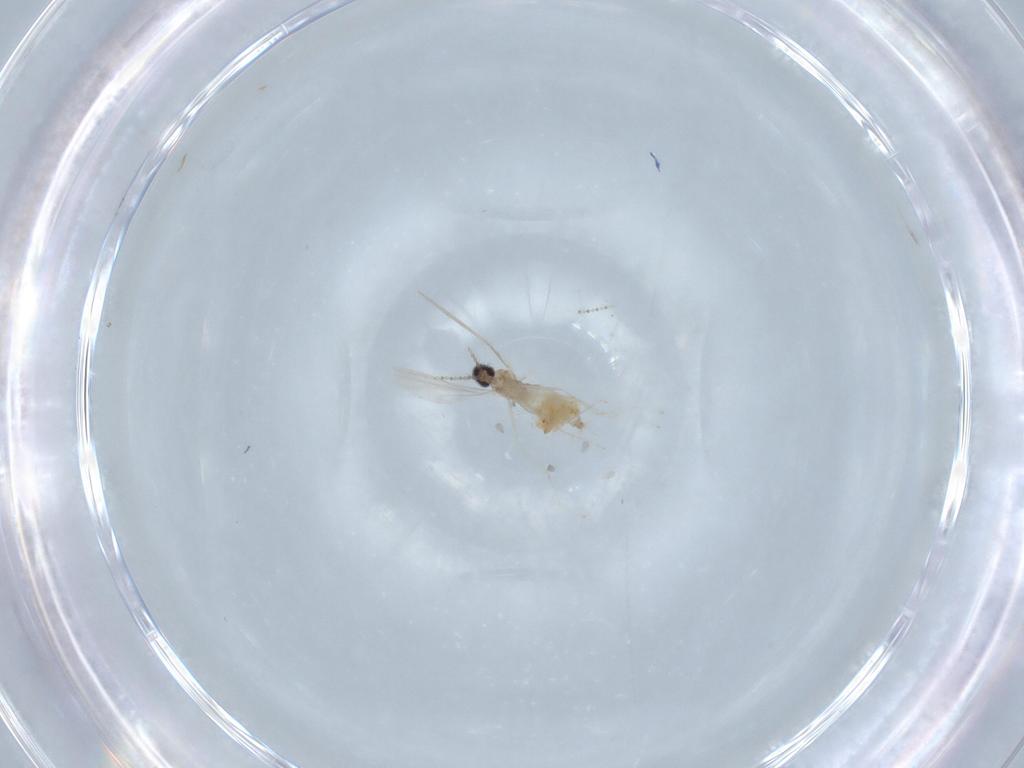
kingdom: Animalia
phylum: Arthropoda
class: Insecta
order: Diptera
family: Cecidomyiidae
